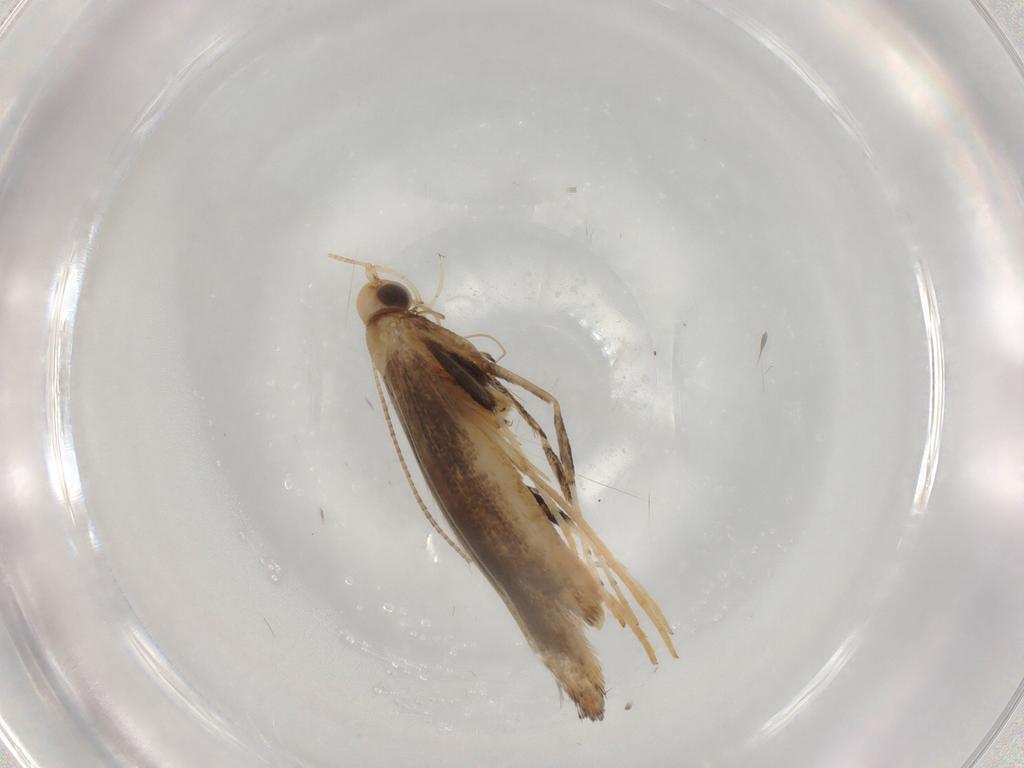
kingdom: Animalia
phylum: Arthropoda
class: Insecta
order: Lepidoptera
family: Gracillariidae
